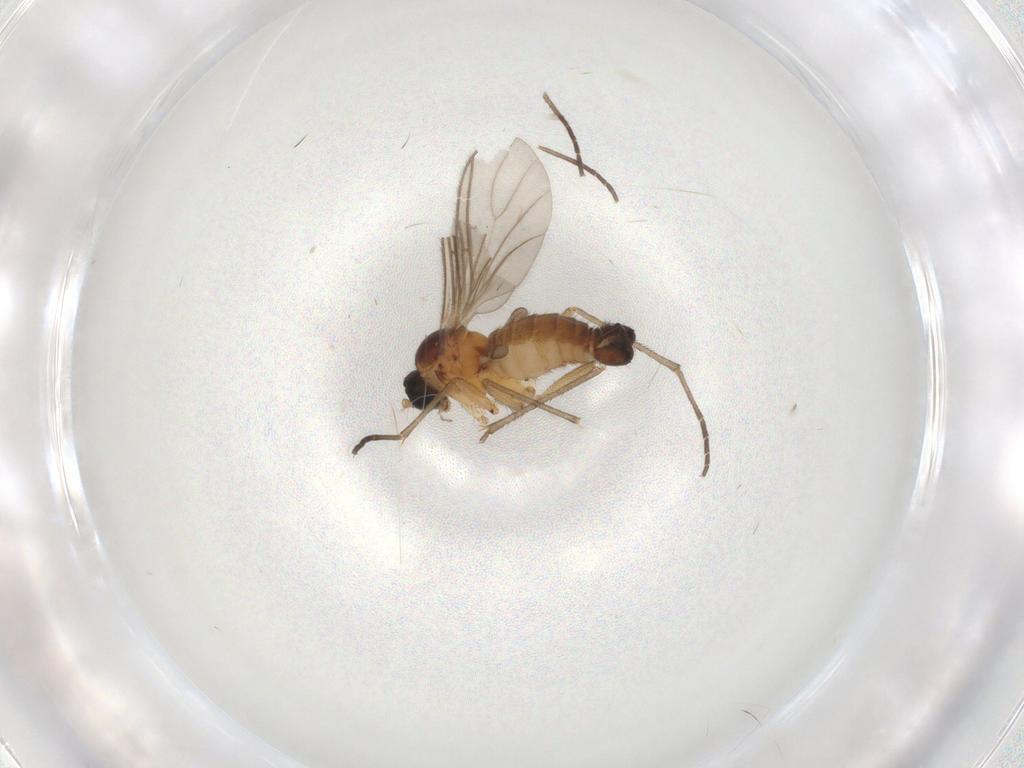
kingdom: Animalia
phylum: Arthropoda
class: Insecta
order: Diptera
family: Sciaridae
